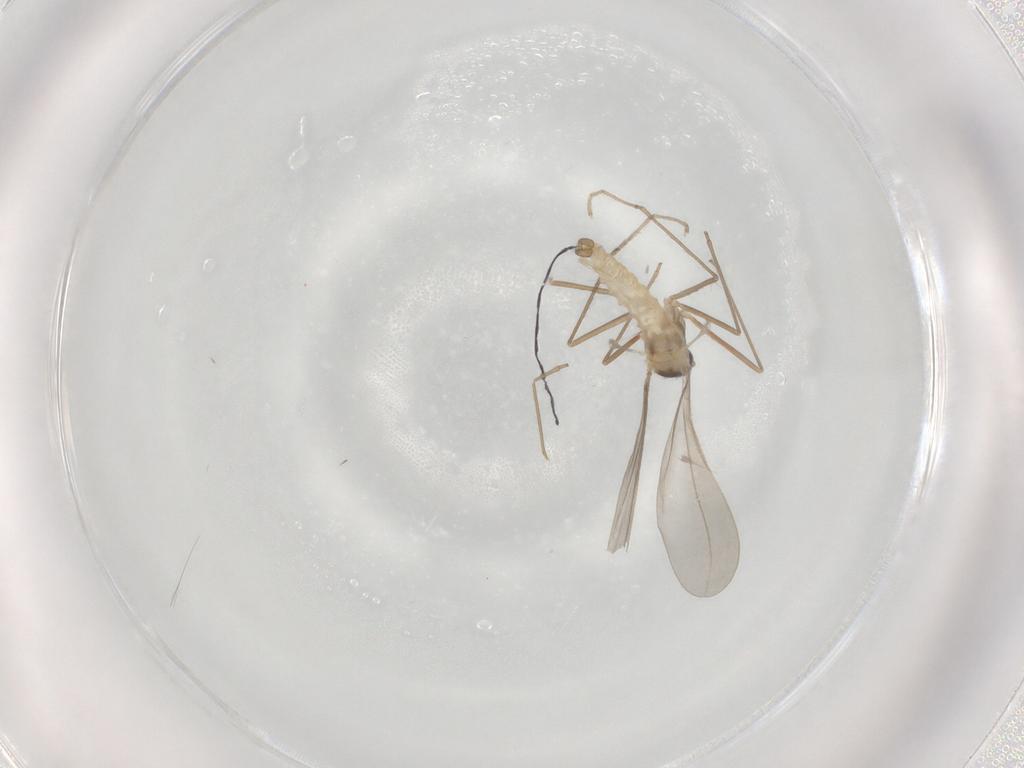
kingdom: Animalia
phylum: Arthropoda
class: Insecta
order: Diptera
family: Cecidomyiidae
